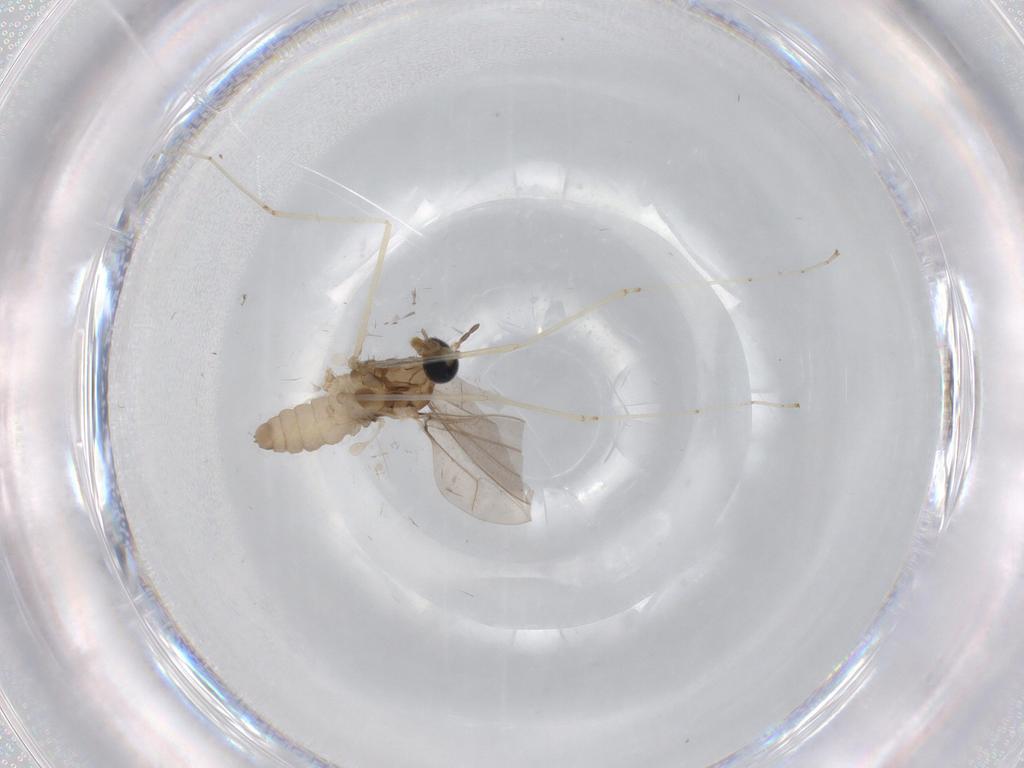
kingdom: Animalia
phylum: Arthropoda
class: Insecta
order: Diptera
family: Cecidomyiidae
